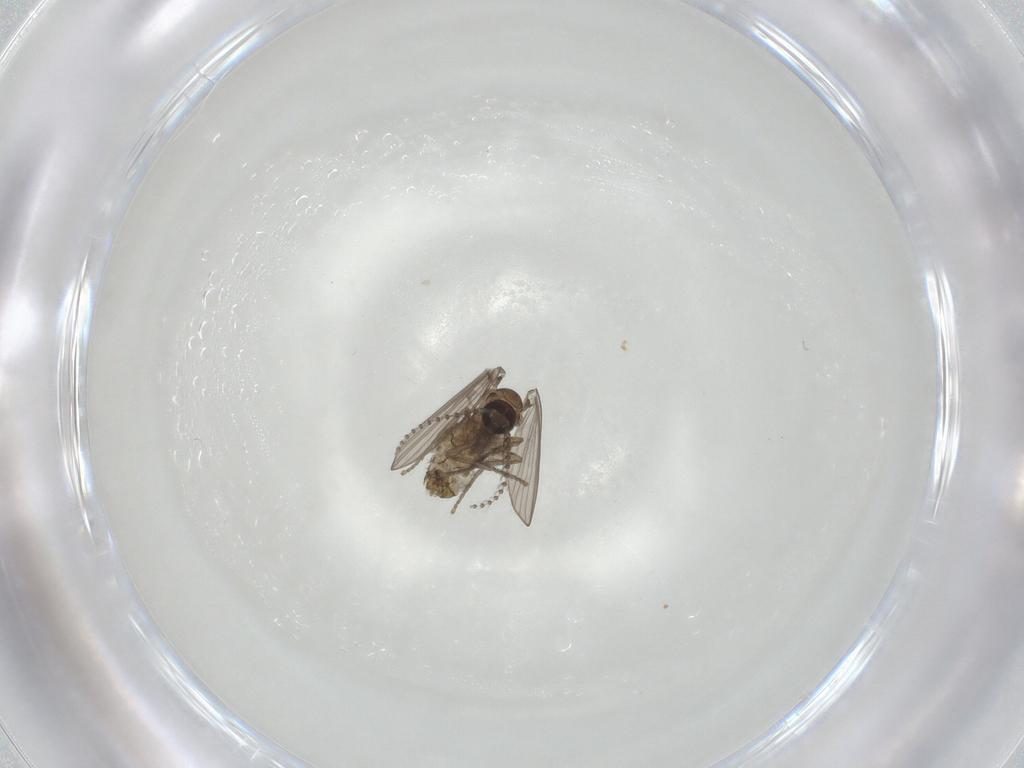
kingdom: Animalia
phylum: Arthropoda
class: Insecta
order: Diptera
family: Psychodidae
